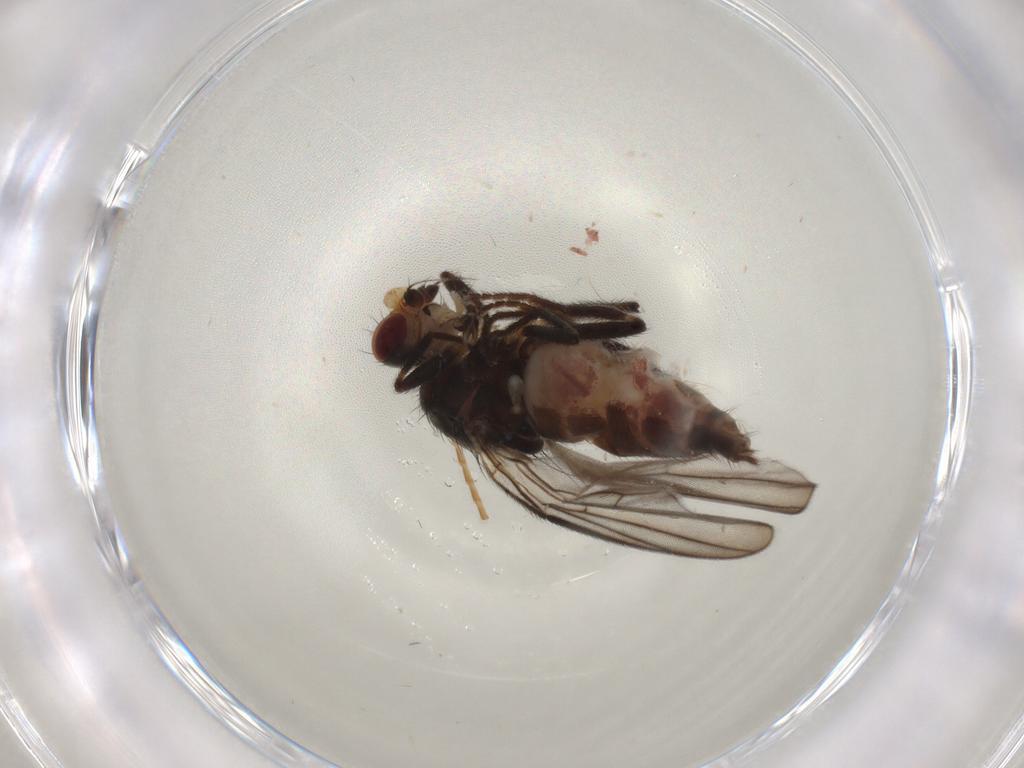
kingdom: Animalia
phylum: Arthropoda
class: Insecta
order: Diptera
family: Chloropidae
